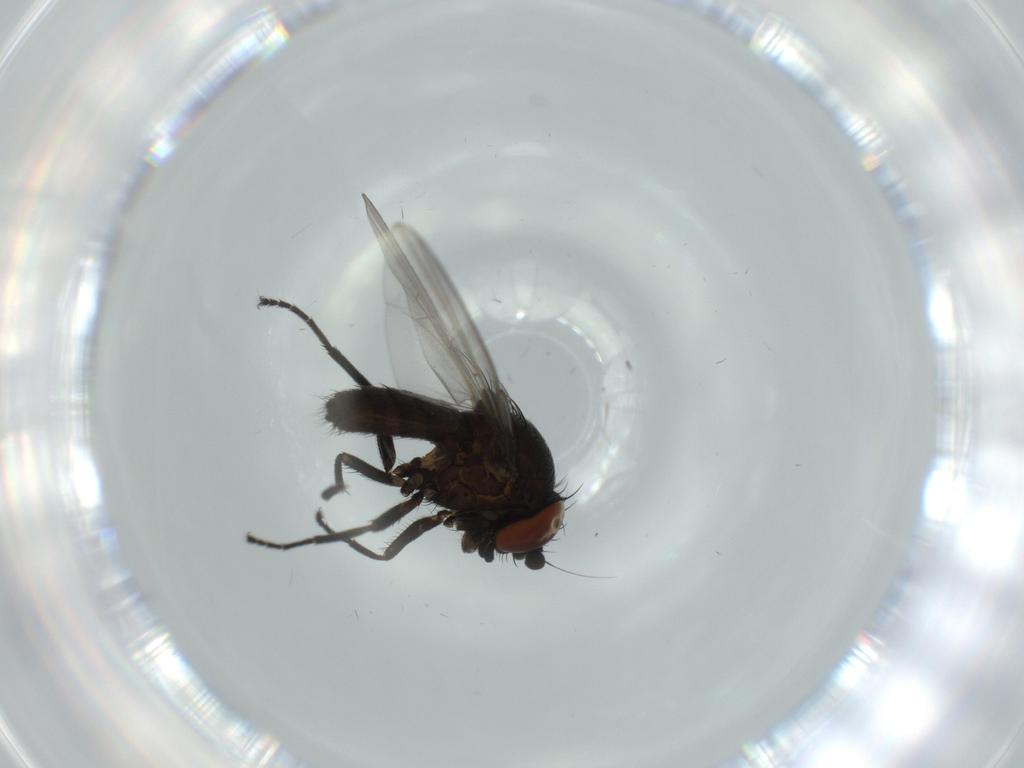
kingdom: Animalia
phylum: Arthropoda
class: Insecta
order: Diptera
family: Milichiidae
